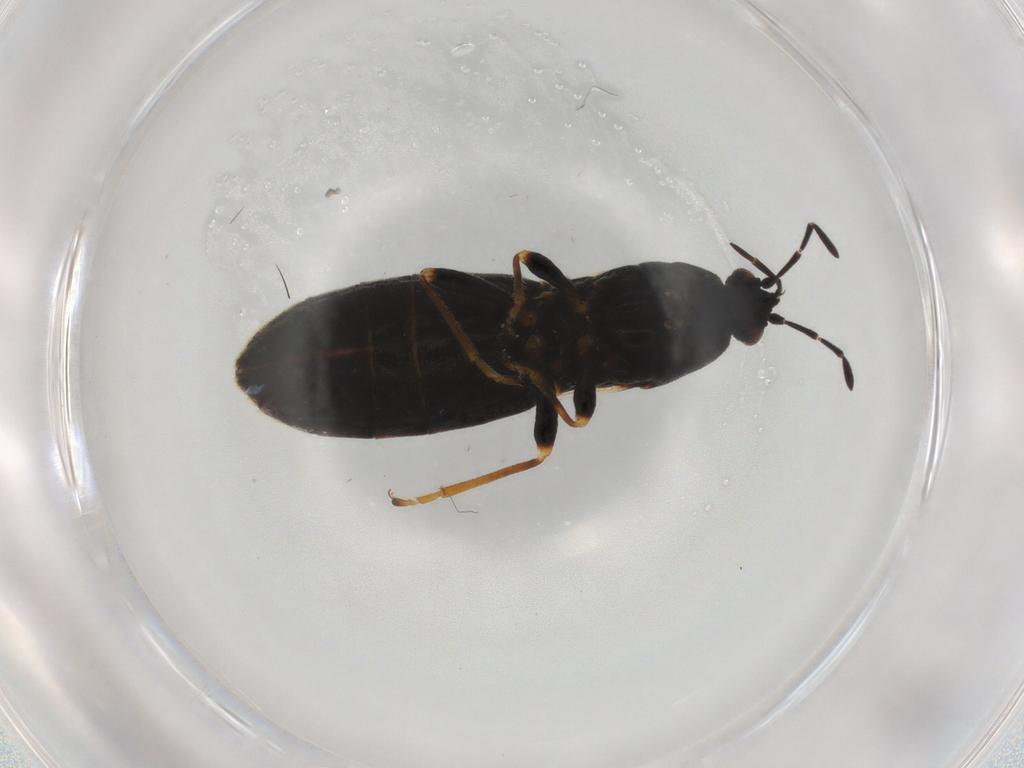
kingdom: Animalia
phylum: Arthropoda
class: Insecta
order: Hemiptera
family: Blissidae
